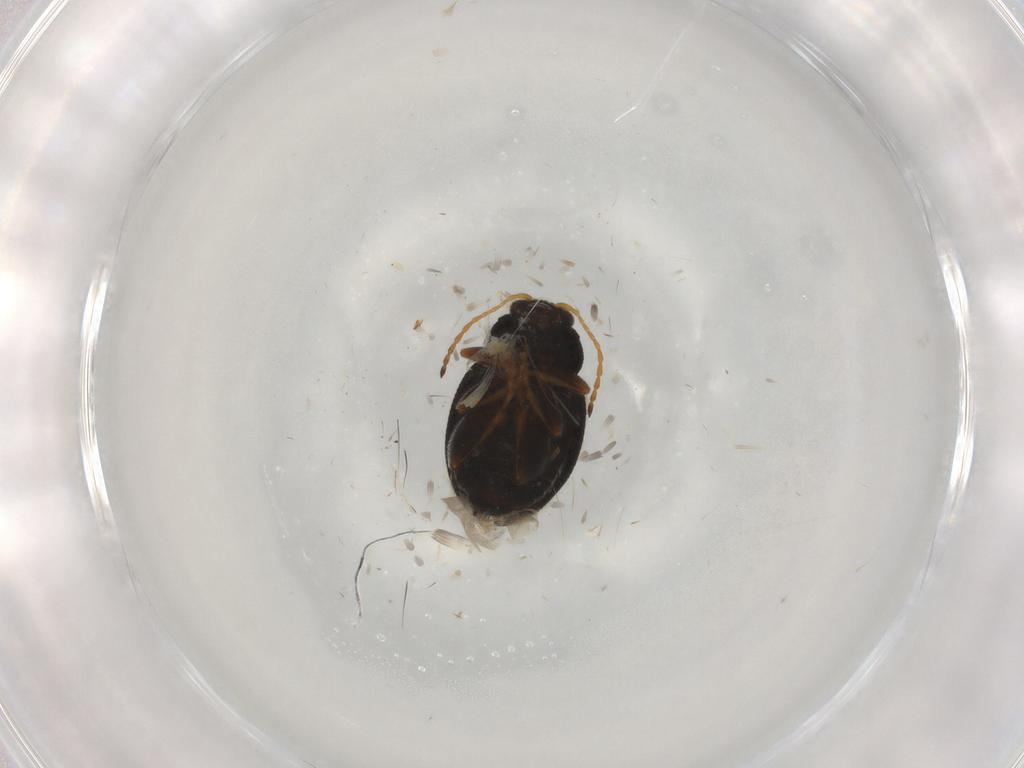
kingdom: Animalia
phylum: Arthropoda
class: Insecta
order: Coleoptera
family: Chrysomelidae
